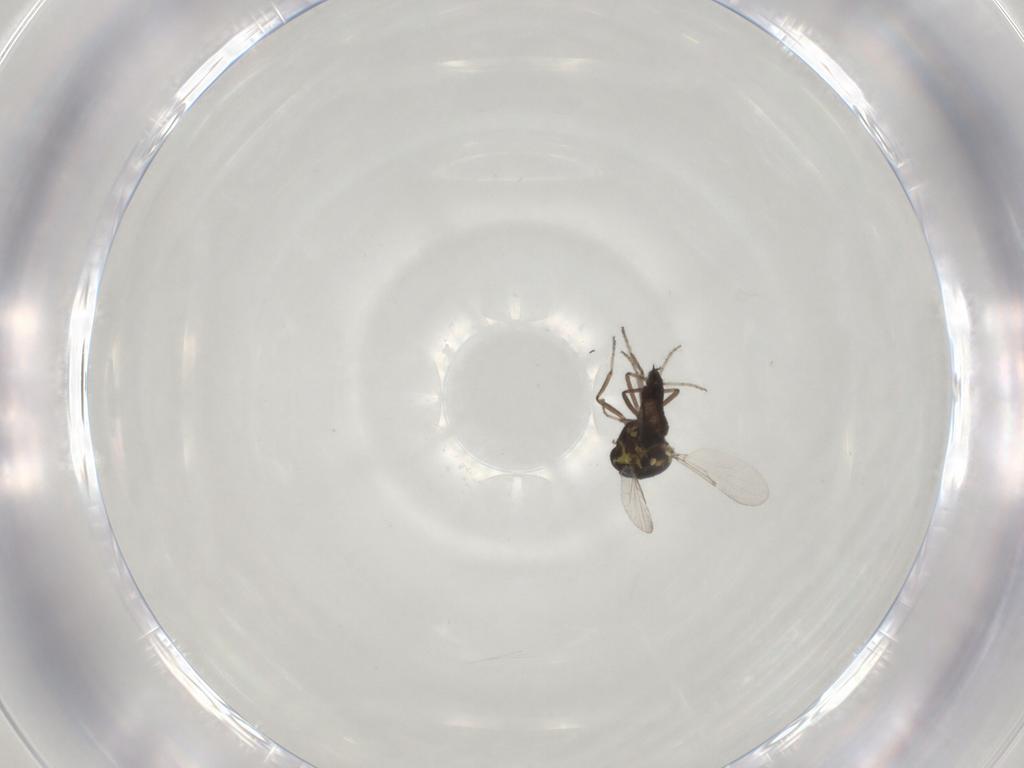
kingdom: Animalia
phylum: Arthropoda
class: Insecta
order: Diptera
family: Ceratopogonidae
